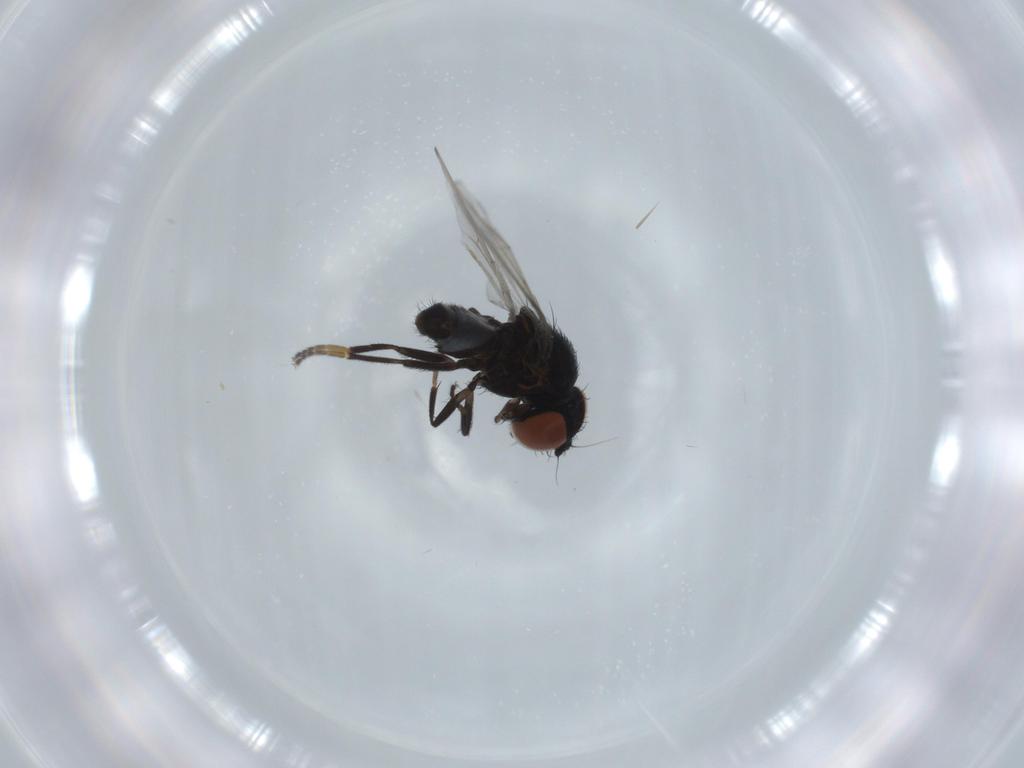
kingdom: Animalia
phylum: Arthropoda
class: Insecta
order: Diptera
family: Milichiidae
